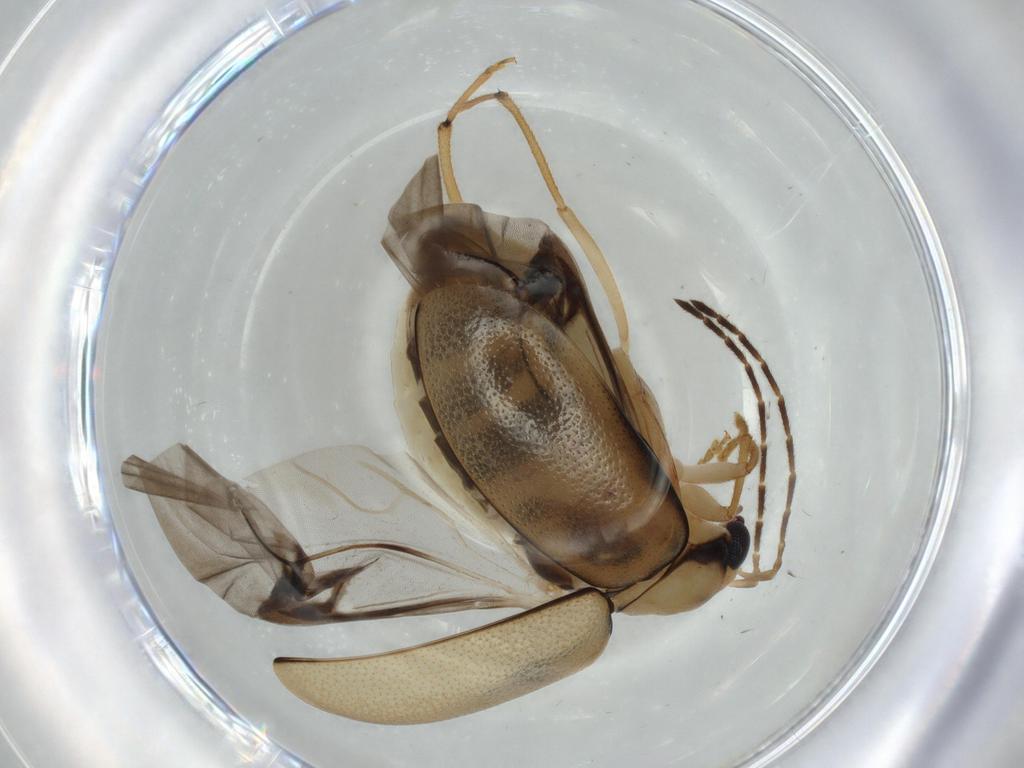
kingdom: Animalia
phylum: Arthropoda
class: Insecta
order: Coleoptera
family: Chrysomelidae
